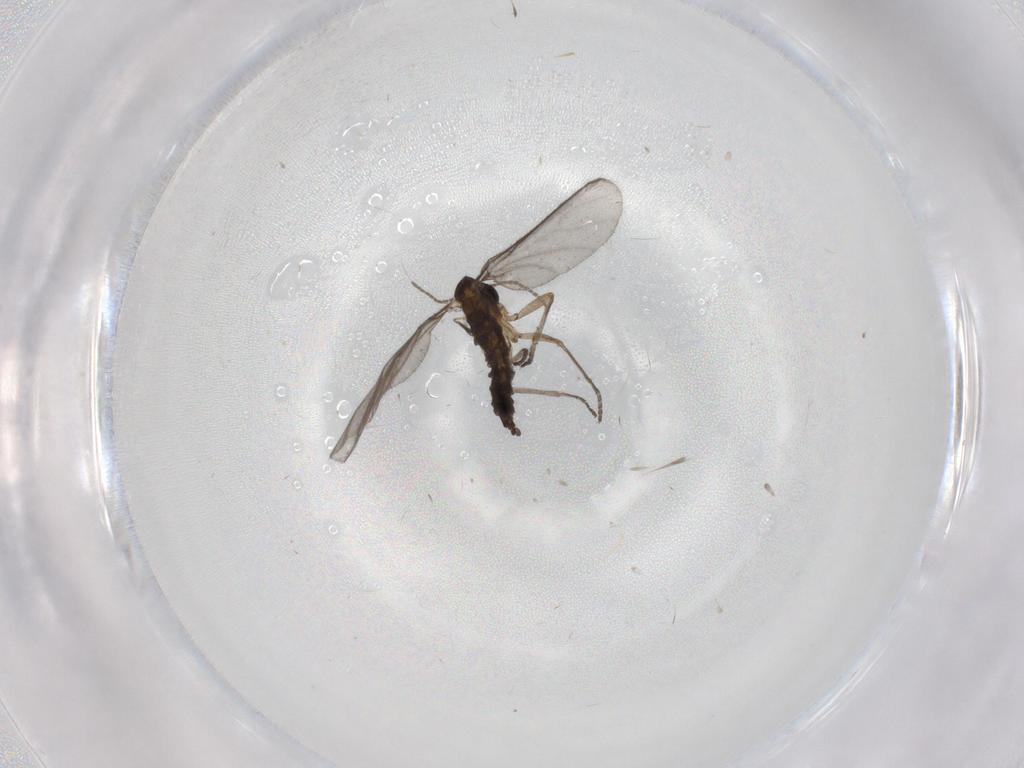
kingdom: Animalia
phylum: Arthropoda
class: Insecta
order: Diptera
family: Sciaridae
